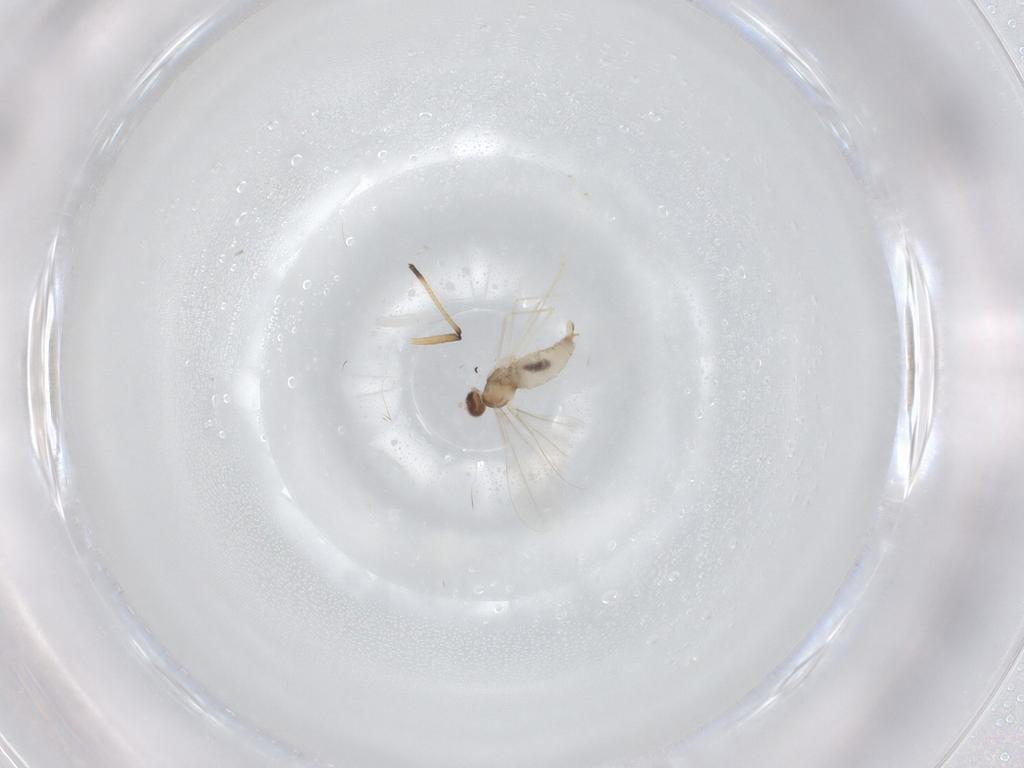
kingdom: Animalia
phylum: Arthropoda
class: Insecta
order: Diptera
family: Cecidomyiidae
